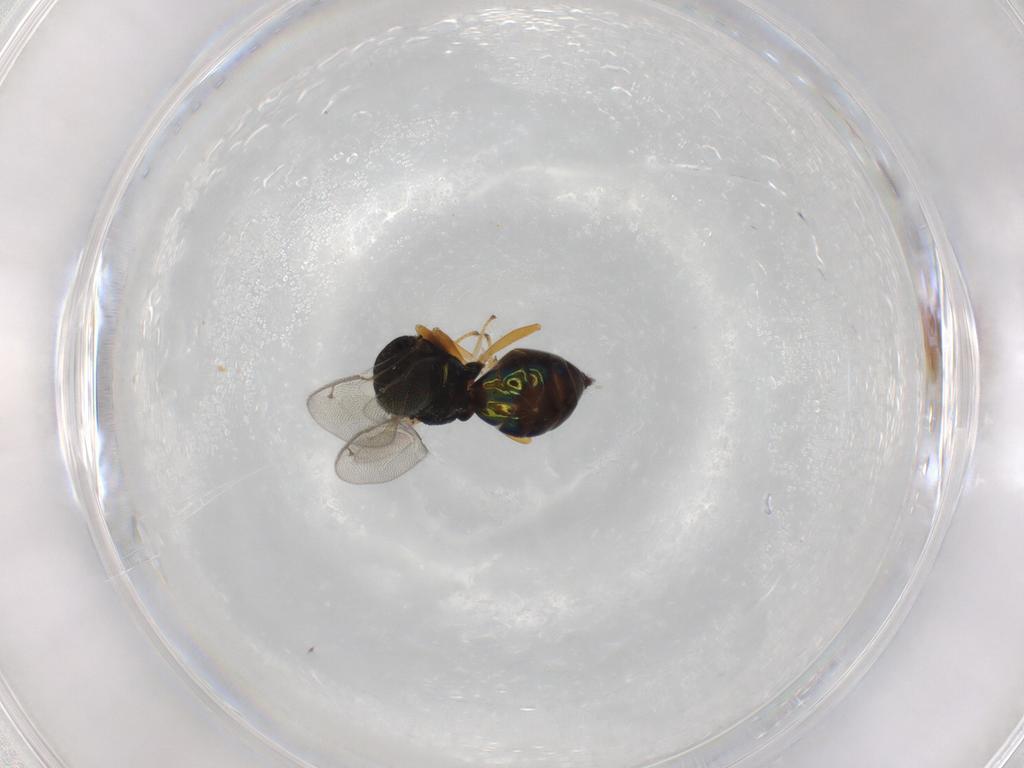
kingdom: Animalia
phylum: Arthropoda
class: Insecta
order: Hymenoptera
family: Pteromalidae
